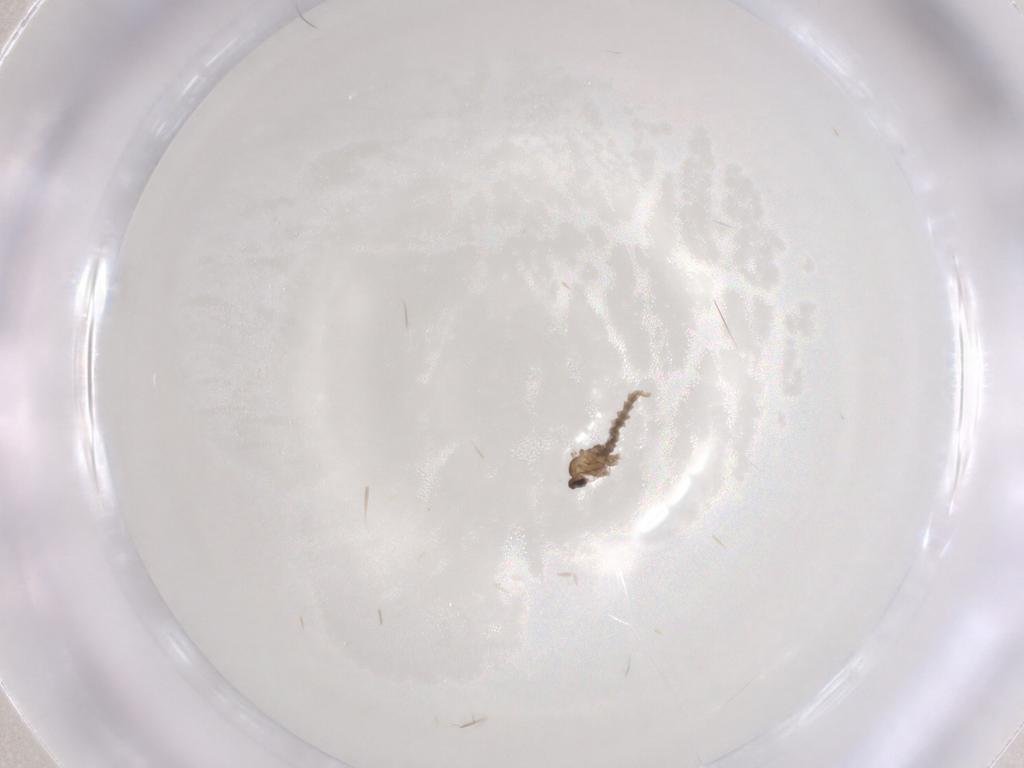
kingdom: Animalia
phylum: Arthropoda
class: Insecta
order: Diptera
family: Cecidomyiidae
